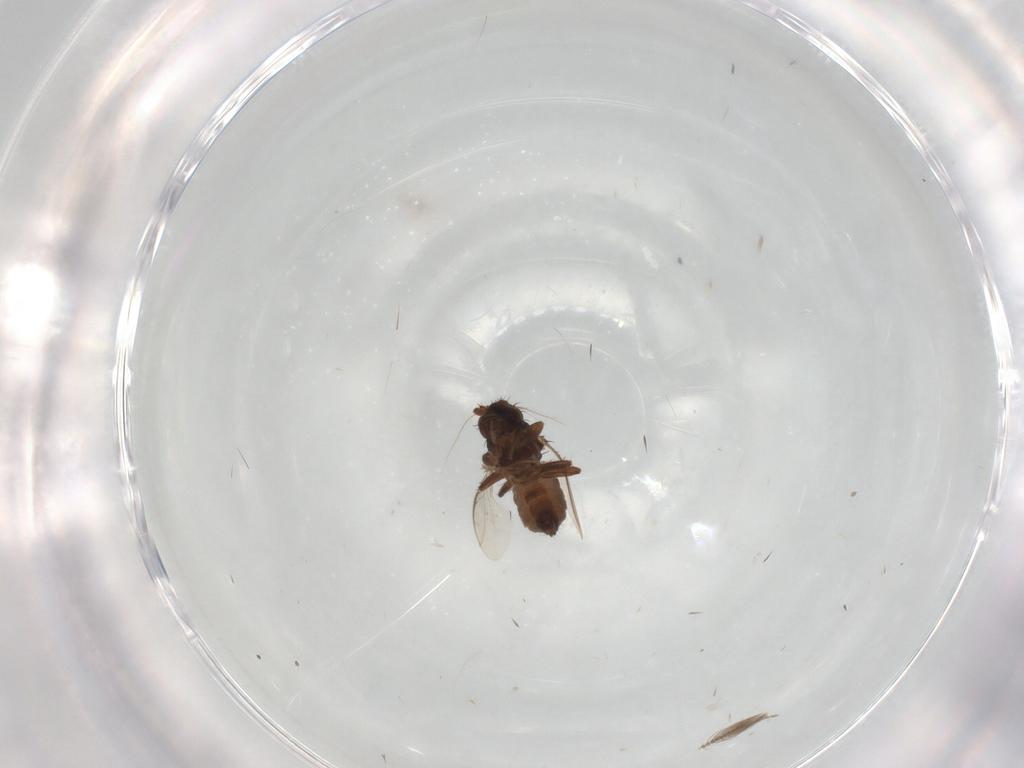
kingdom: Animalia
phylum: Arthropoda
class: Insecta
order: Diptera
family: Sphaeroceridae
